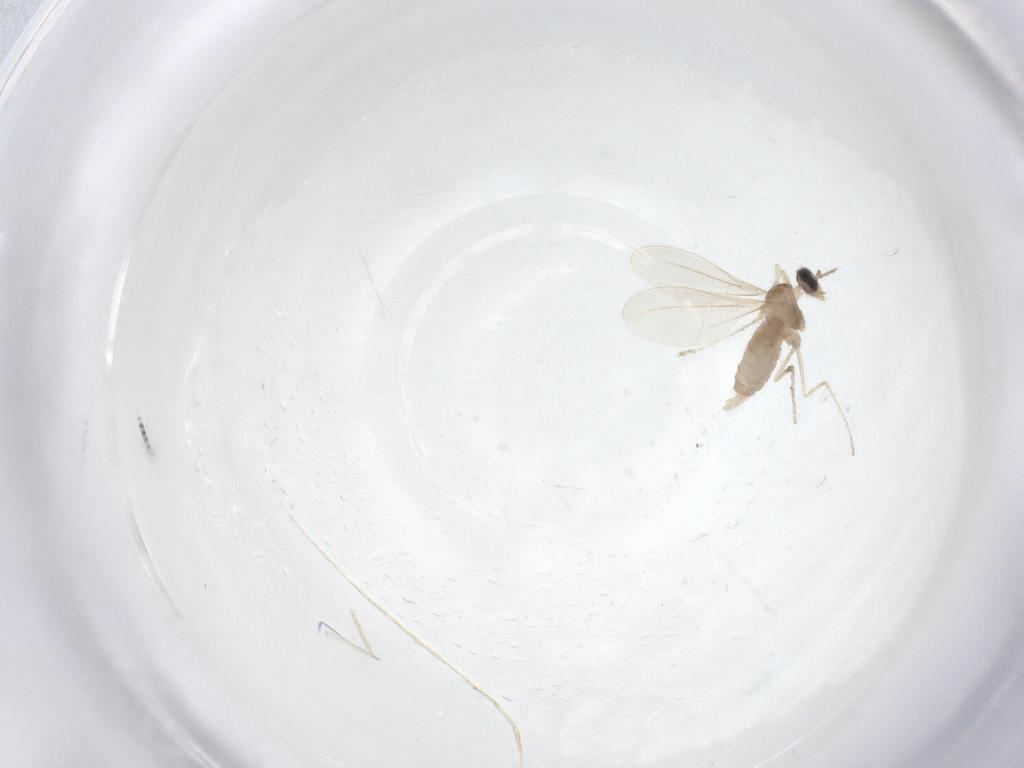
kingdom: Animalia
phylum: Arthropoda
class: Insecta
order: Diptera
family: Cecidomyiidae
